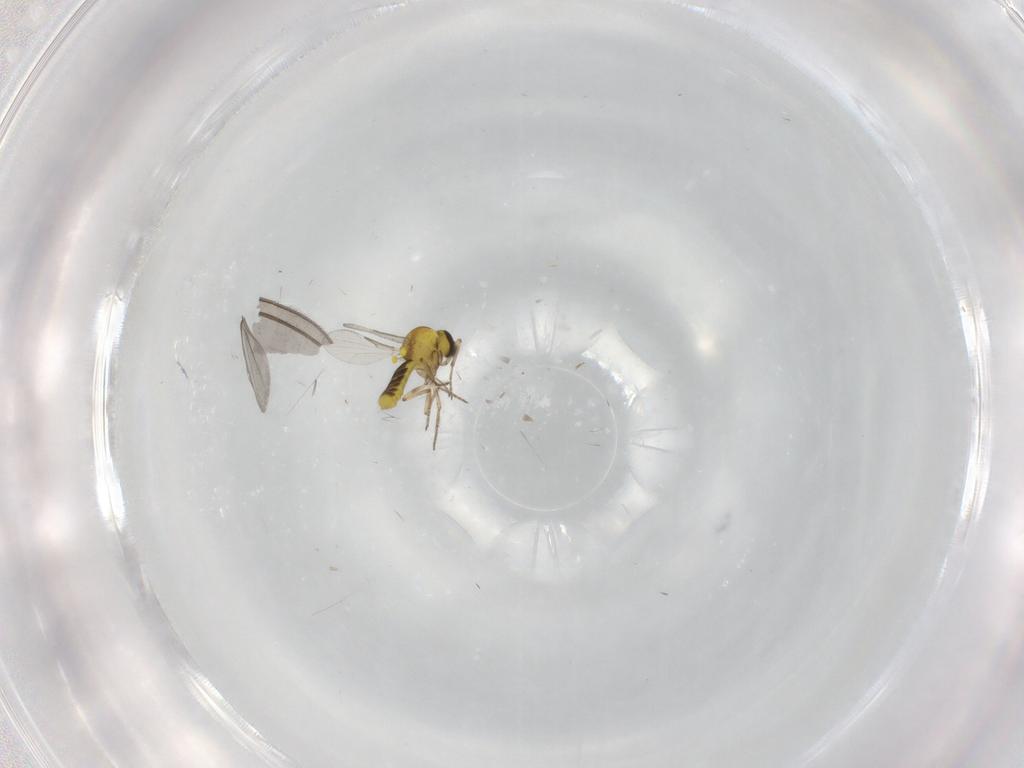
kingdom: Animalia
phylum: Arthropoda
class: Insecta
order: Diptera
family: Sciaridae
